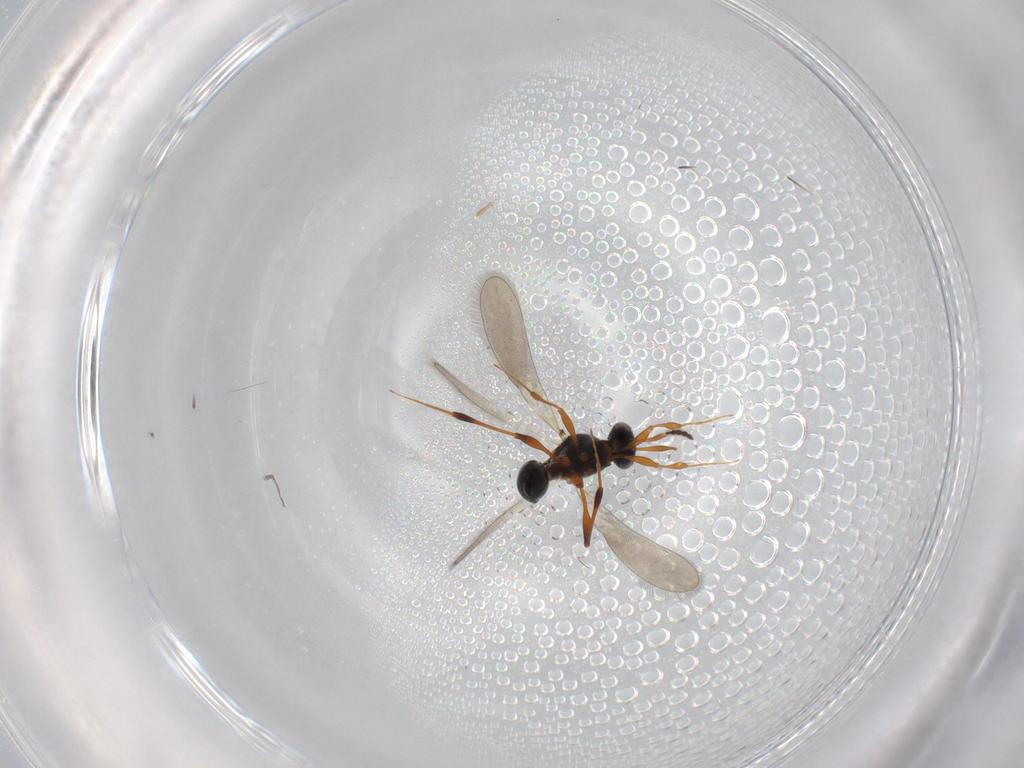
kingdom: Animalia
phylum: Arthropoda
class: Insecta
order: Hymenoptera
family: Platygastridae
